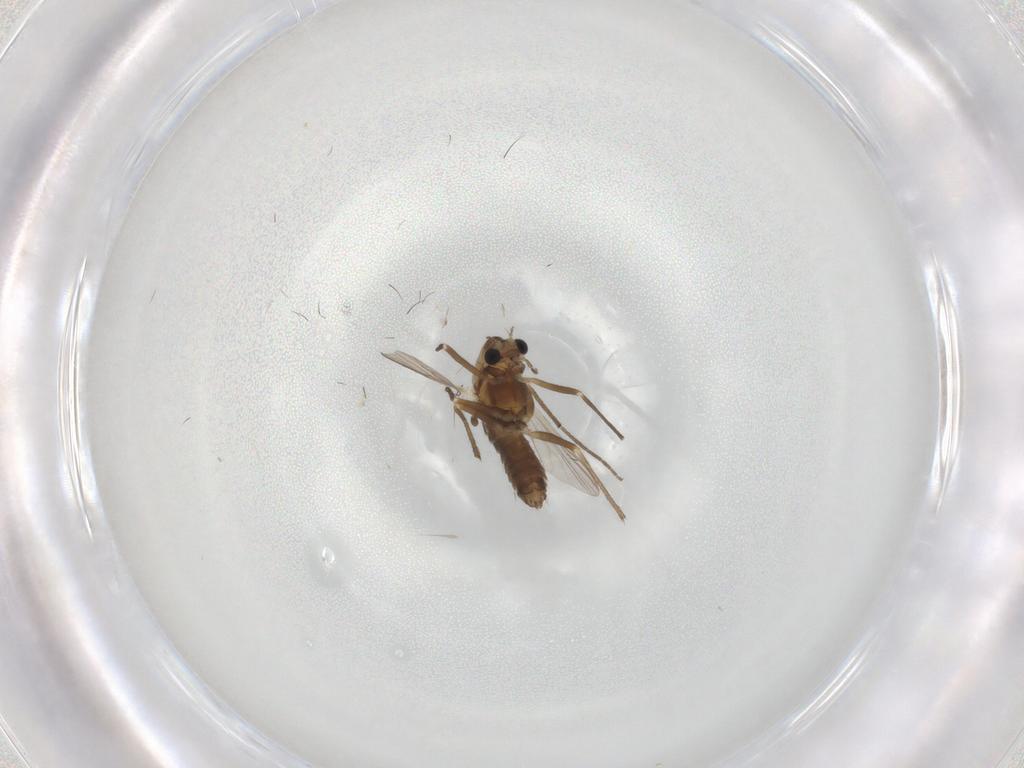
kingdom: Animalia
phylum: Arthropoda
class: Insecta
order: Diptera
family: Chironomidae
